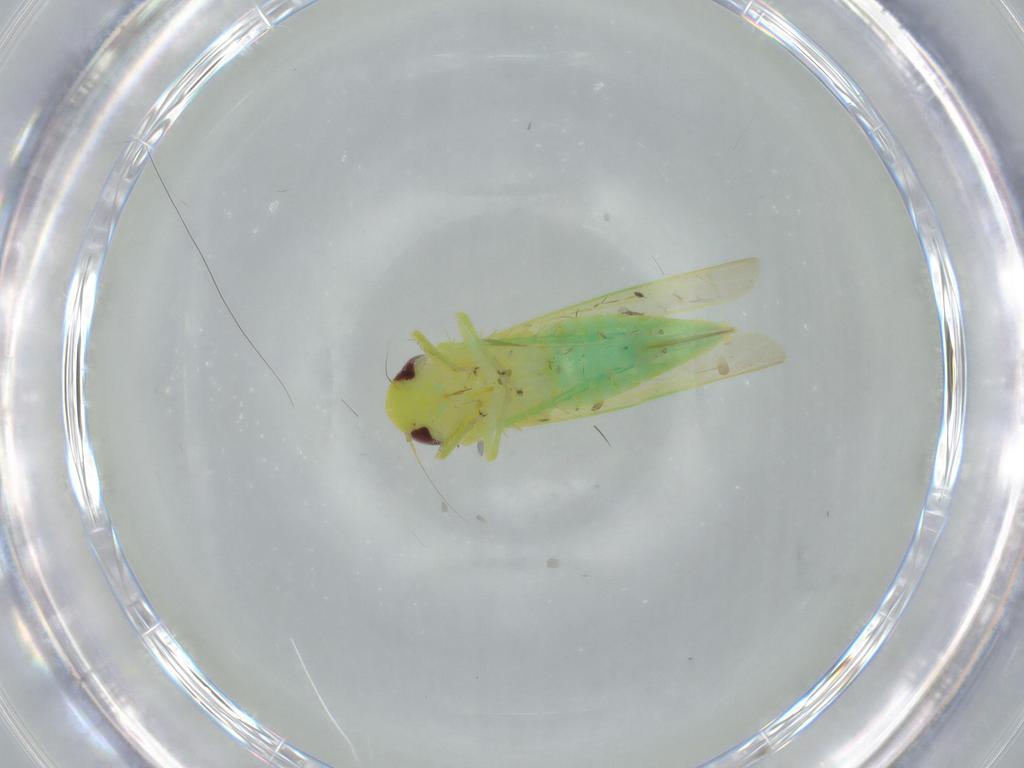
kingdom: Animalia
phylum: Arthropoda
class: Insecta
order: Hemiptera
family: Cicadellidae
